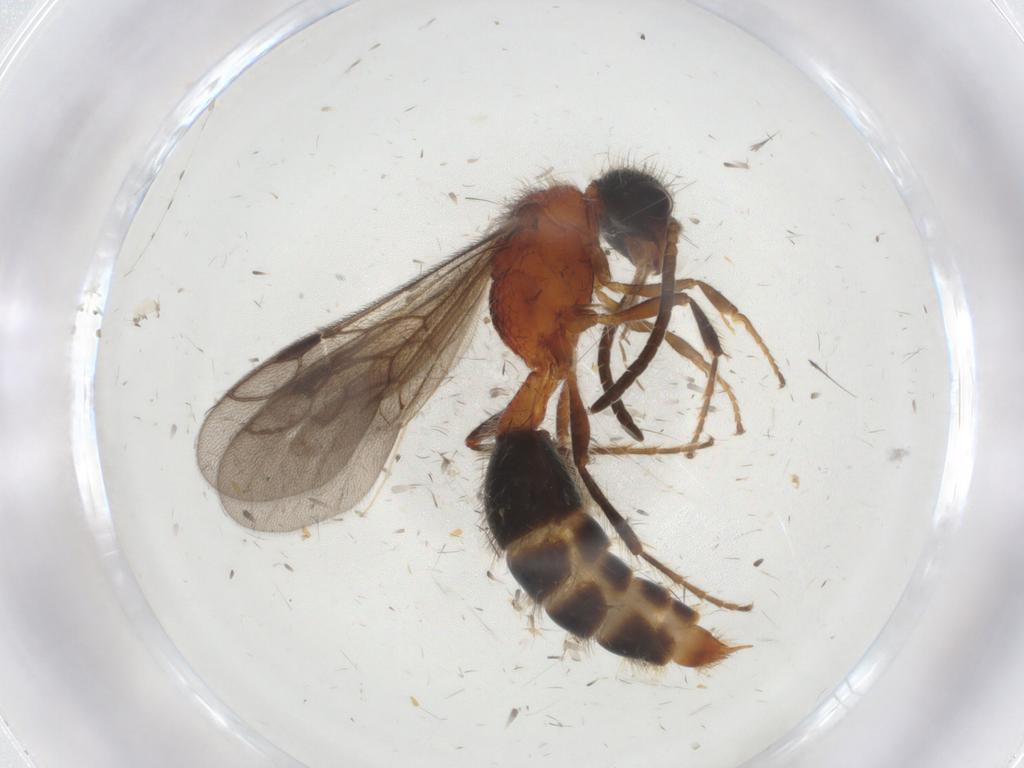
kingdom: Animalia
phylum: Arthropoda
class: Insecta
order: Hymenoptera
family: Mutillidae
